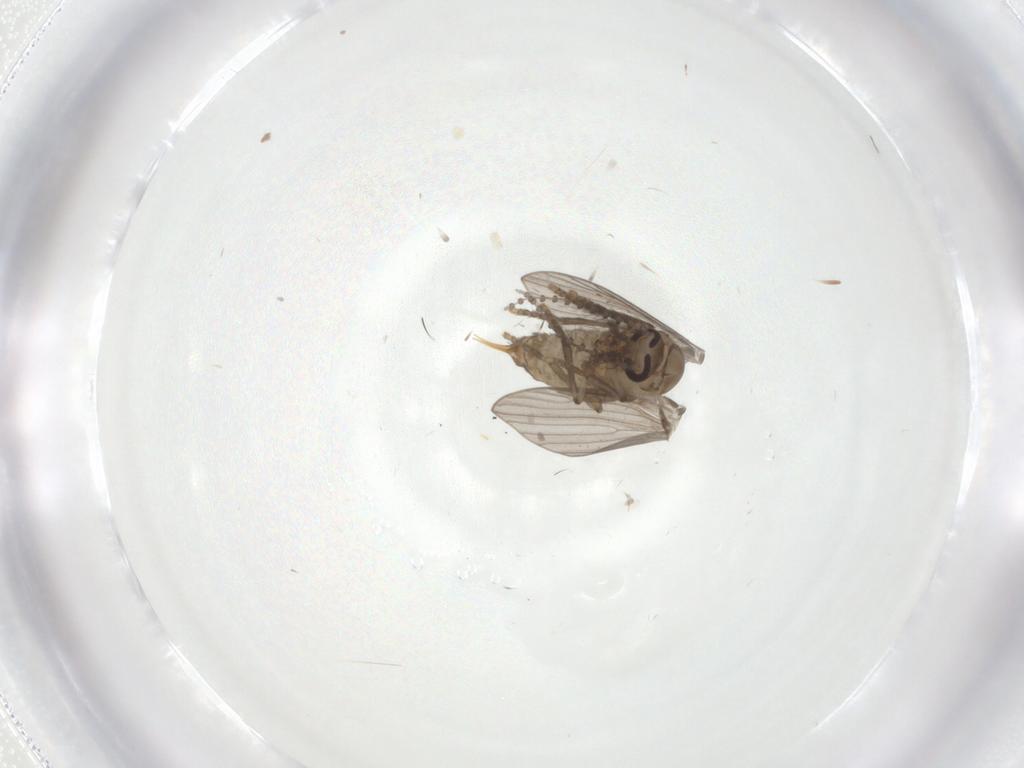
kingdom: Animalia
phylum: Arthropoda
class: Insecta
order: Diptera
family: Psychodidae
